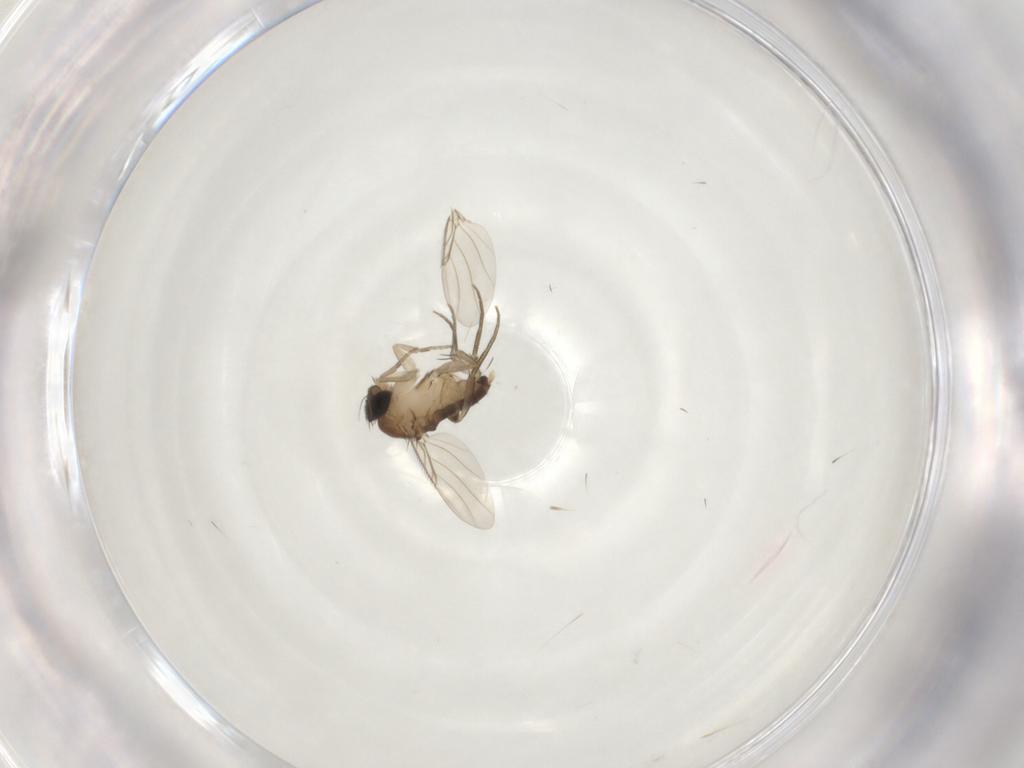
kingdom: Animalia
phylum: Arthropoda
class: Insecta
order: Diptera
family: Phoridae
